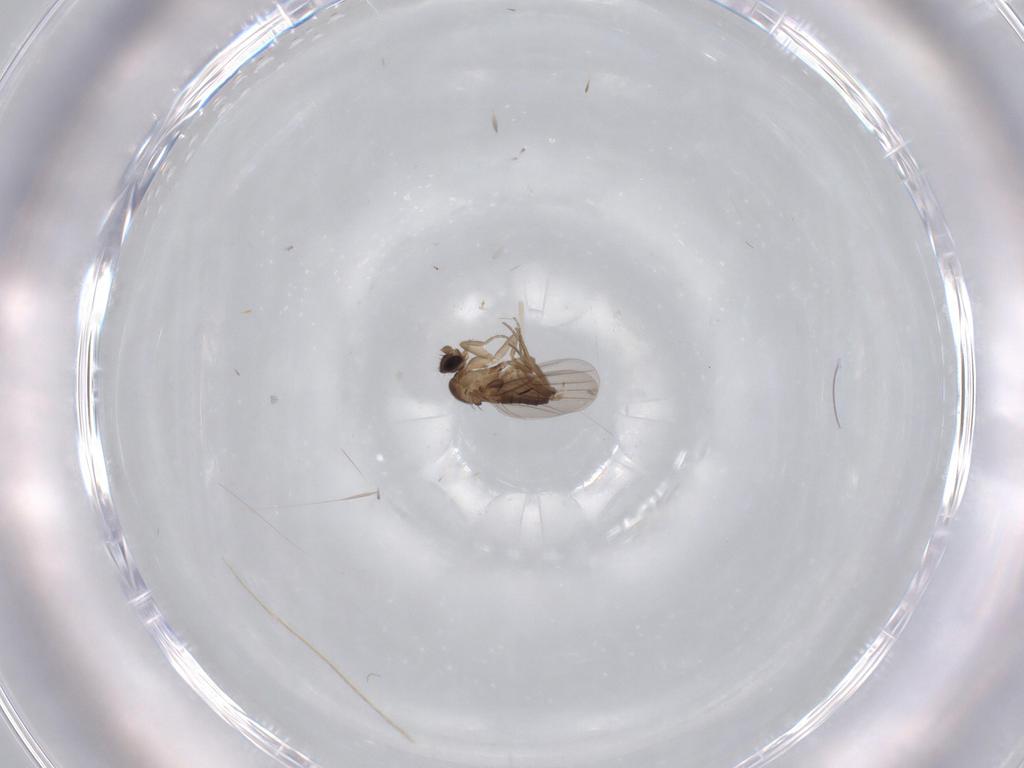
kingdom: Animalia
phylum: Arthropoda
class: Insecta
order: Diptera
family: Phoridae
